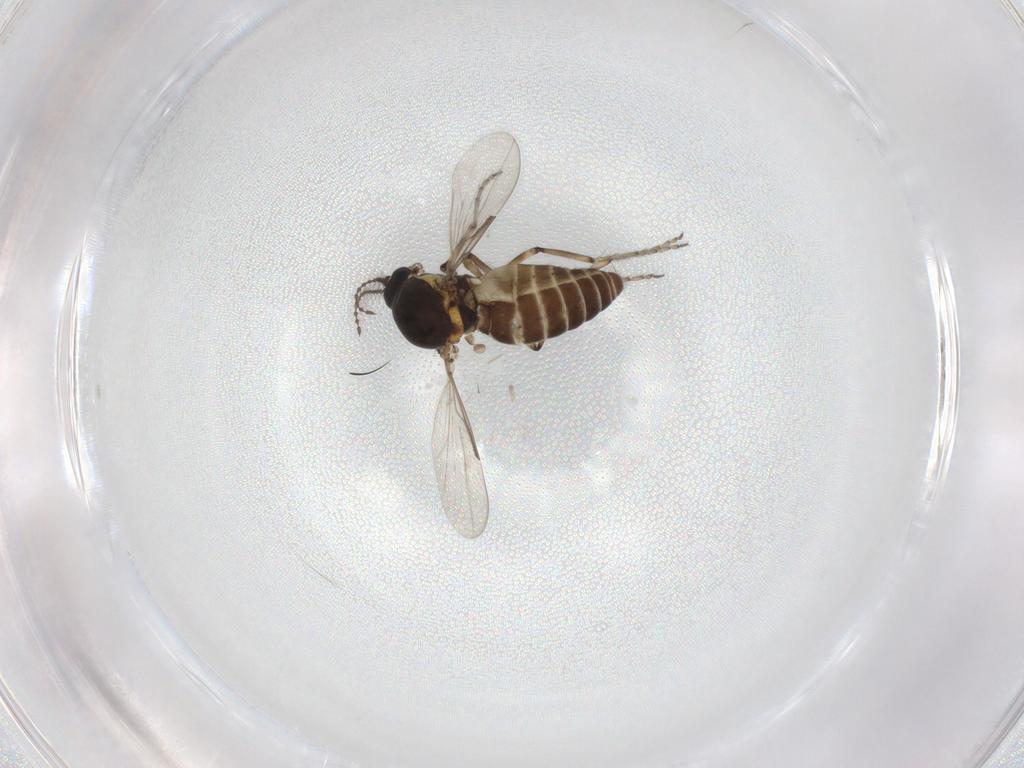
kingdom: Animalia
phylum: Arthropoda
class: Insecta
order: Diptera
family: Ceratopogonidae
